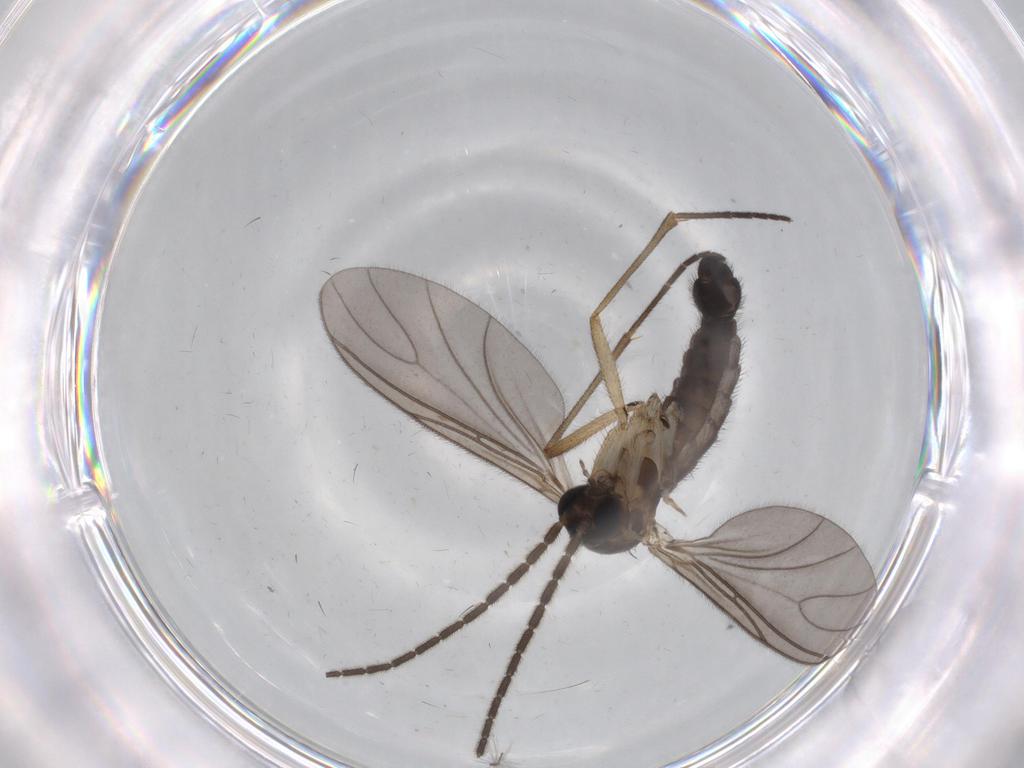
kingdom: Animalia
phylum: Arthropoda
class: Insecta
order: Diptera
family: Sciaridae
